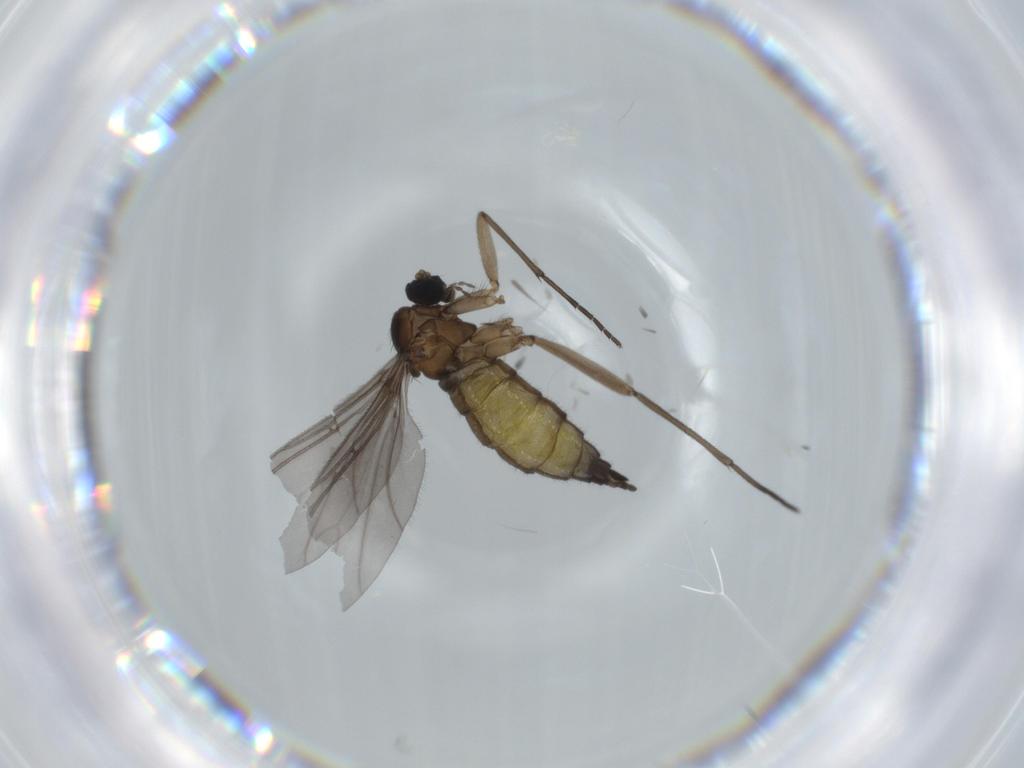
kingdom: Animalia
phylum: Arthropoda
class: Insecta
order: Diptera
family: Sciaridae
